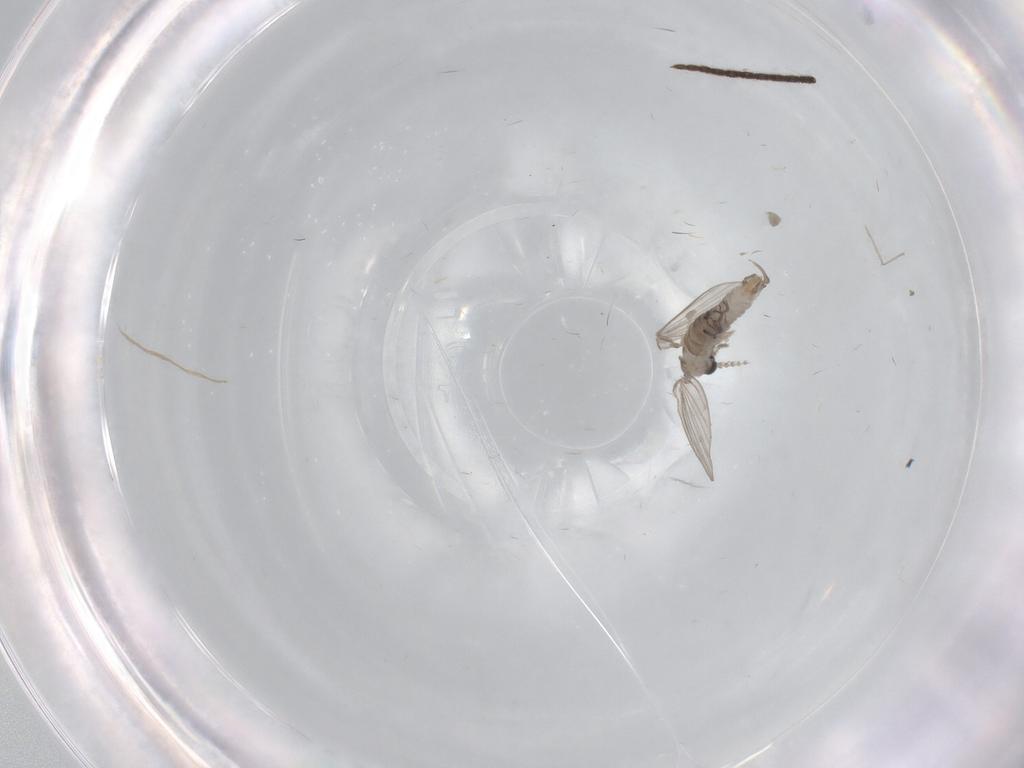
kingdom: Animalia
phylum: Arthropoda
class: Insecta
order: Diptera
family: Psychodidae
